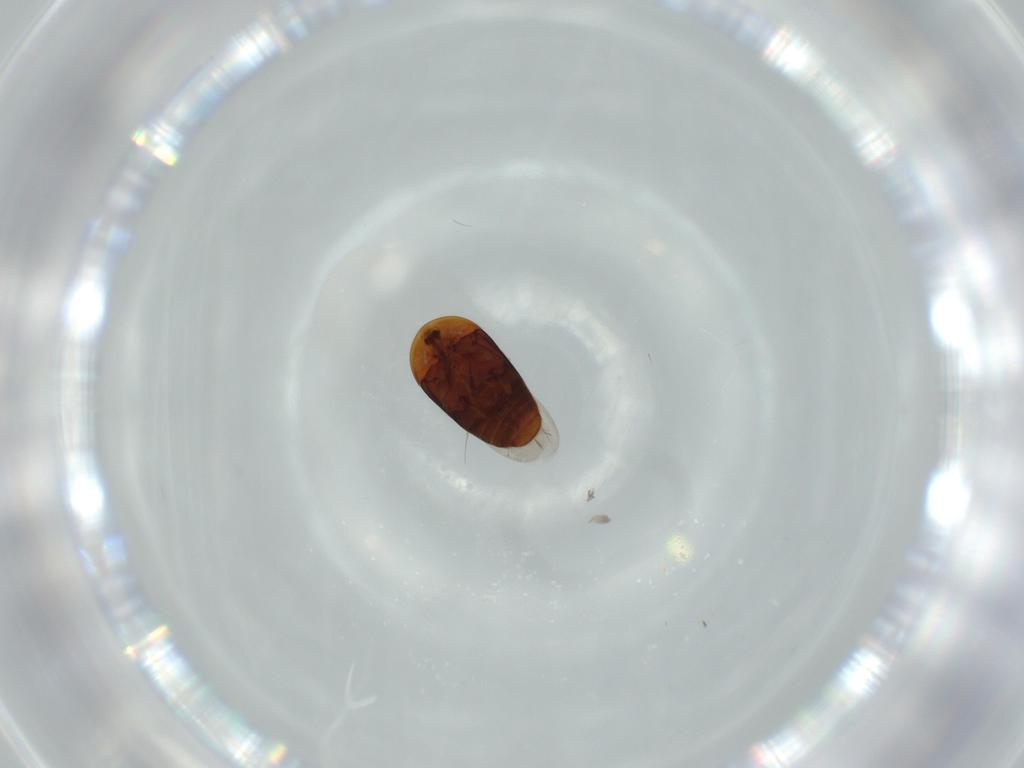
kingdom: Animalia
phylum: Arthropoda
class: Insecta
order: Coleoptera
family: Corylophidae
